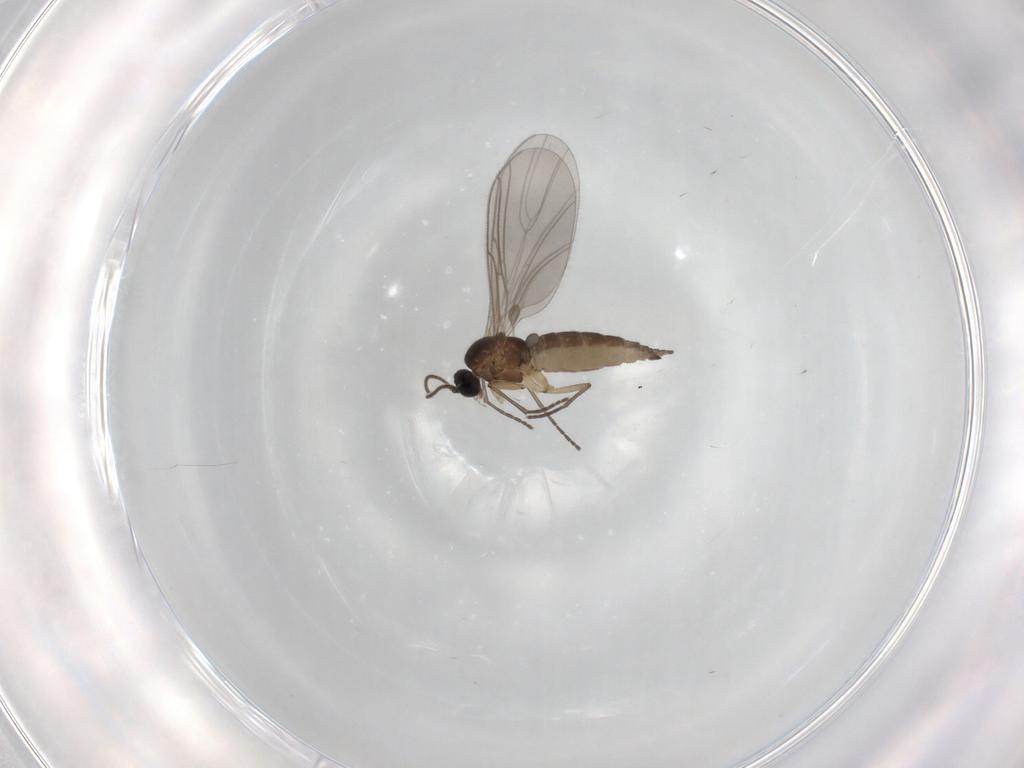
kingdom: Animalia
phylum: Arthropoda
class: Insecta
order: Diptera
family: Sciaridae
